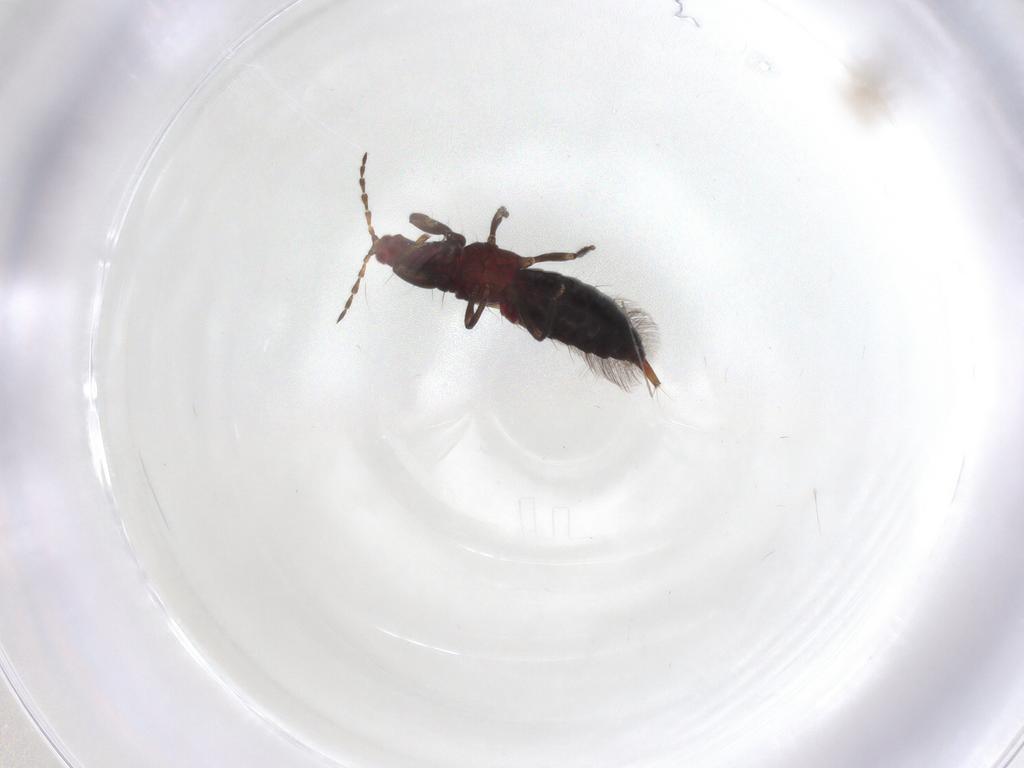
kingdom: Animalia
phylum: Arthropoda
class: Insecta
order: Thysanoptera
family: Phlaeothripidae
